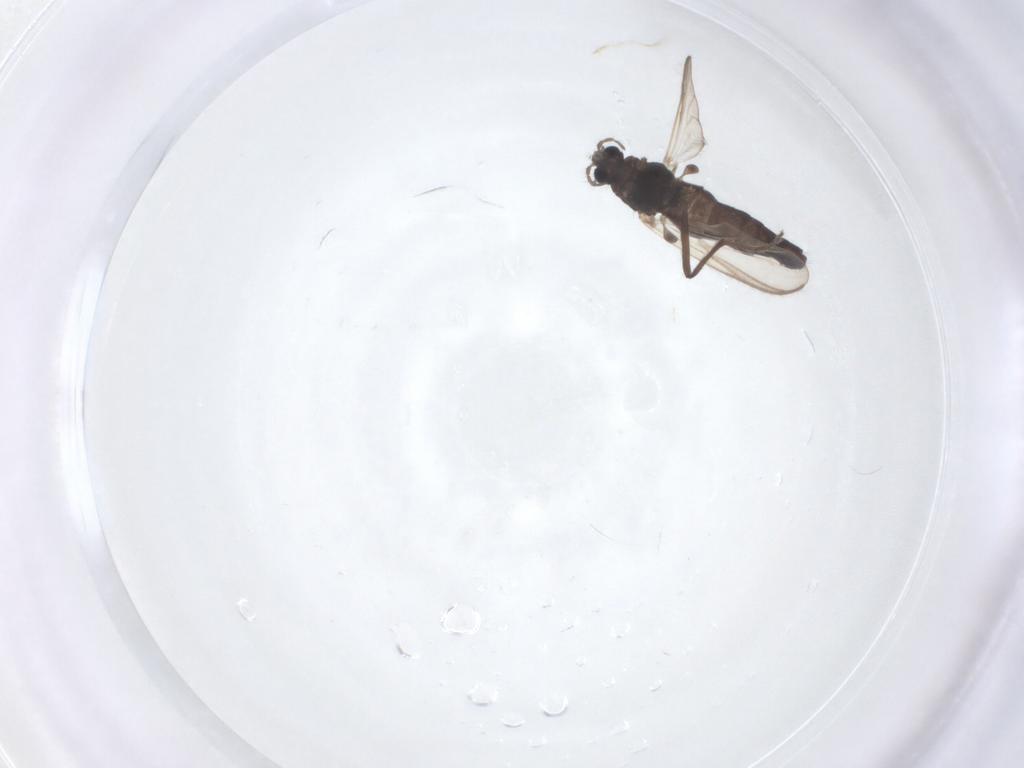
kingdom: Animalia
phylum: Arthropoda
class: Insecta
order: Diptera
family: Chironomidae
